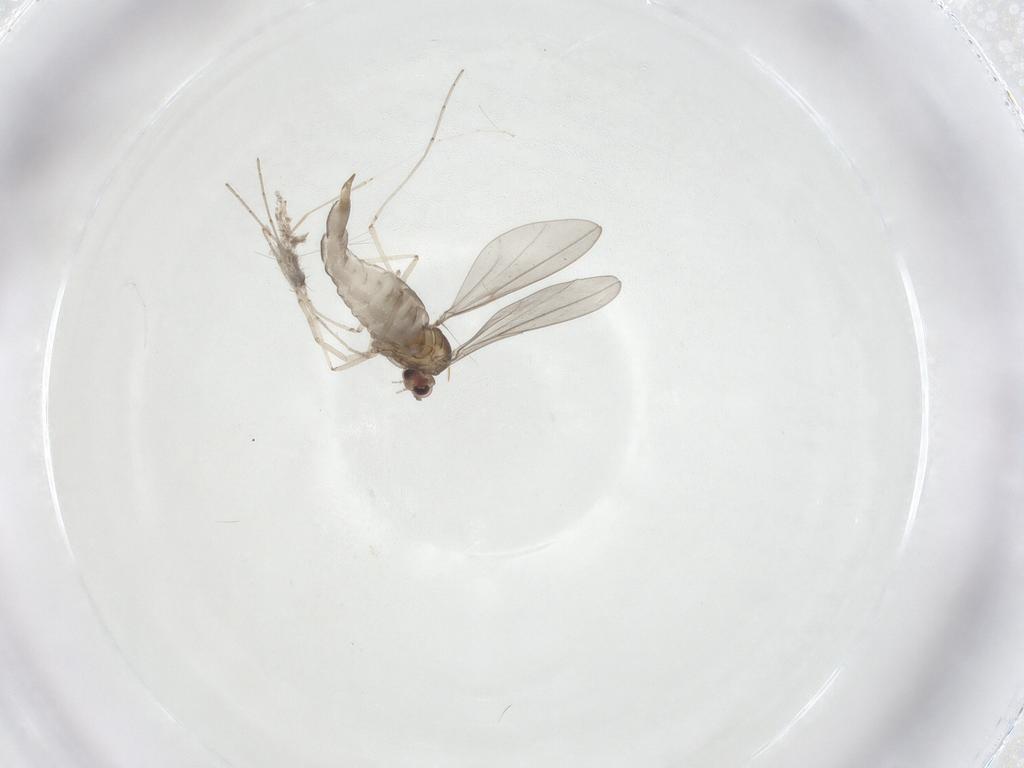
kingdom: Animalia
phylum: Arthropoda
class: Insecta
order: Diptera
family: Cecidomyiidae
